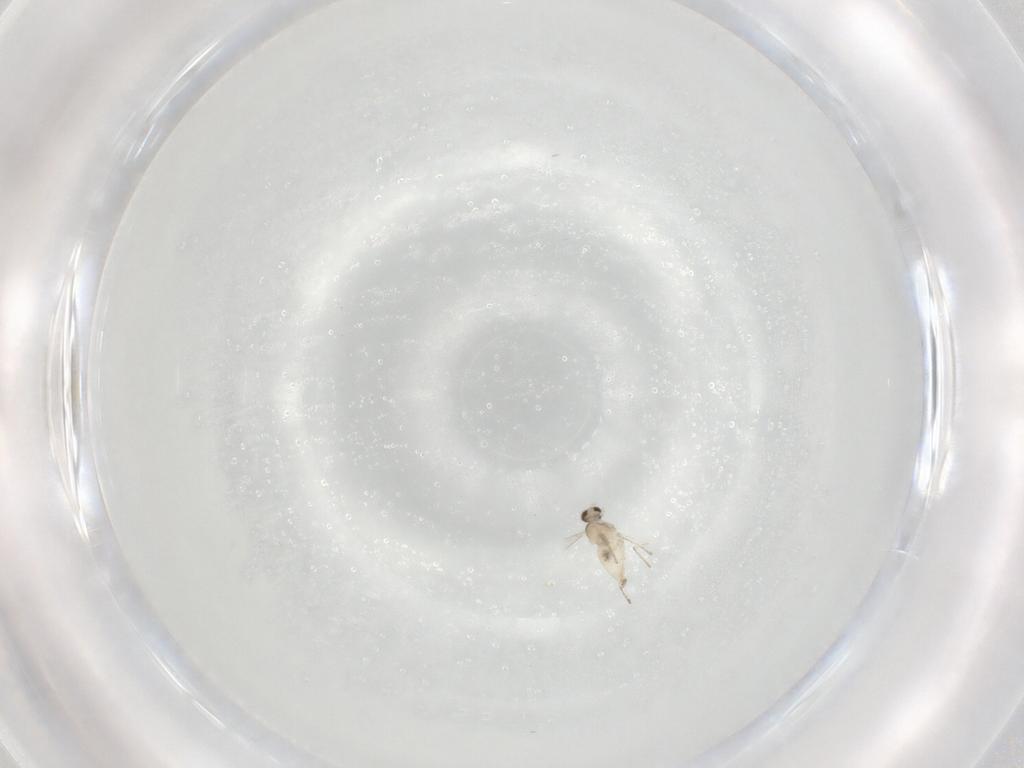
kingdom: Animalia
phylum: Arthropoda
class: Insecta
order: Diptera
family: Cecidomyiidae
